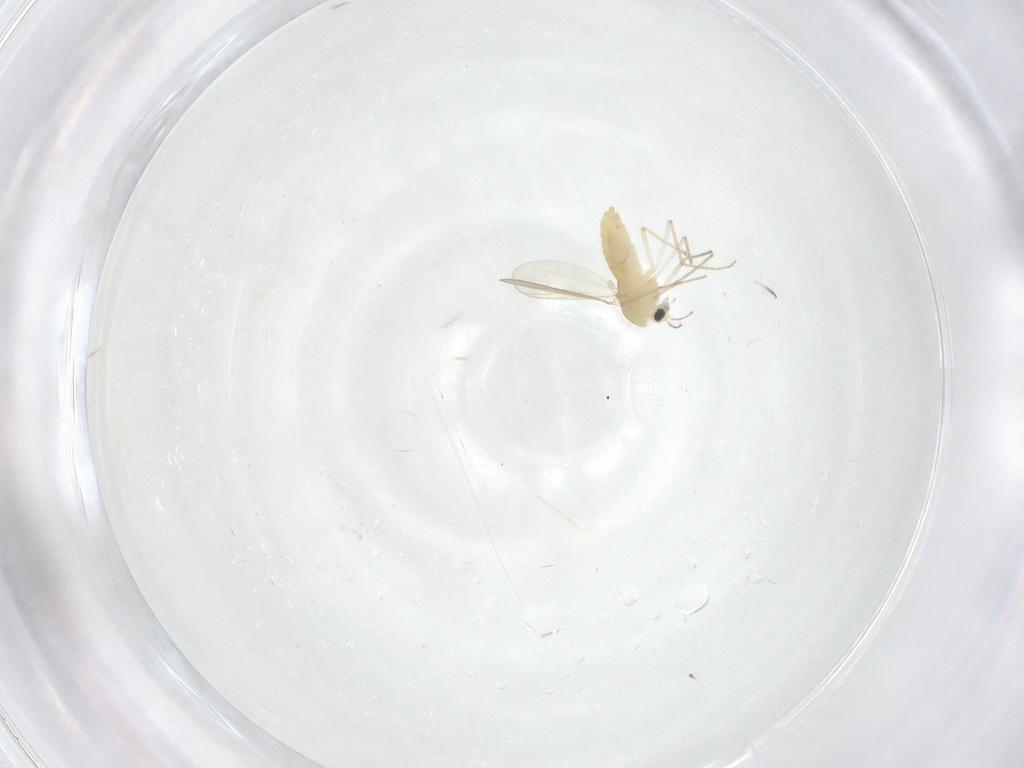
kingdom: Animalia
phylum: Arthropoda
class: Insecta
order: Diptera
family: Chironomidae
